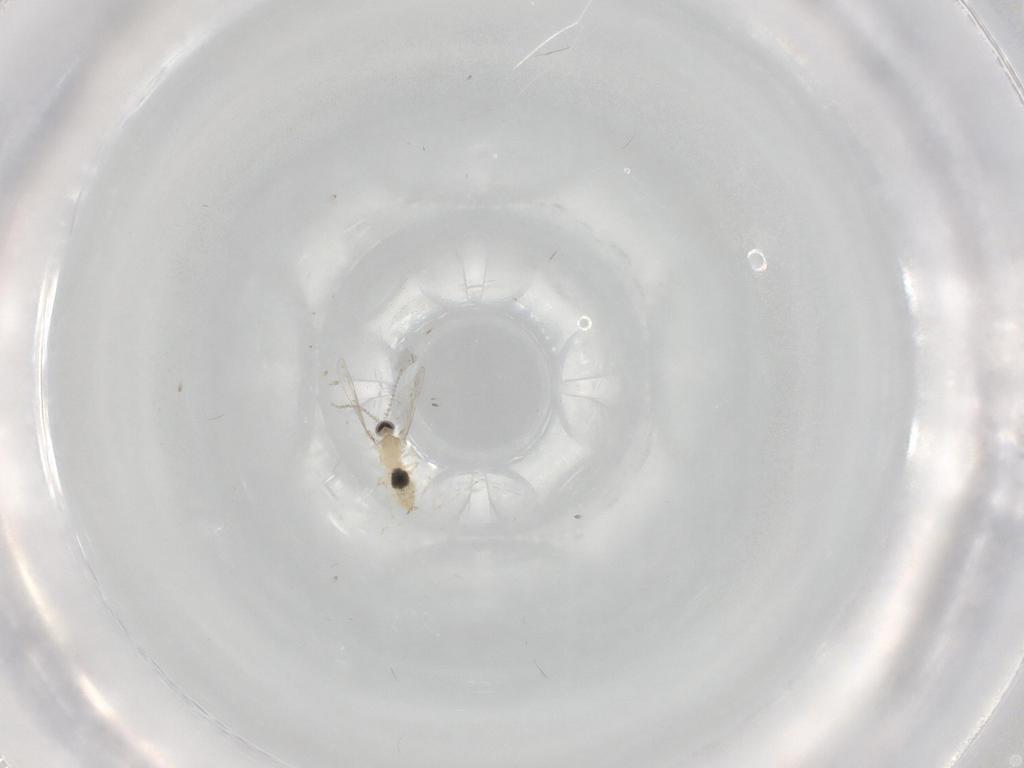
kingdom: Animalia
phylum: Arthropoda
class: Insecta
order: Diptera
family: Cecidomyiidae
